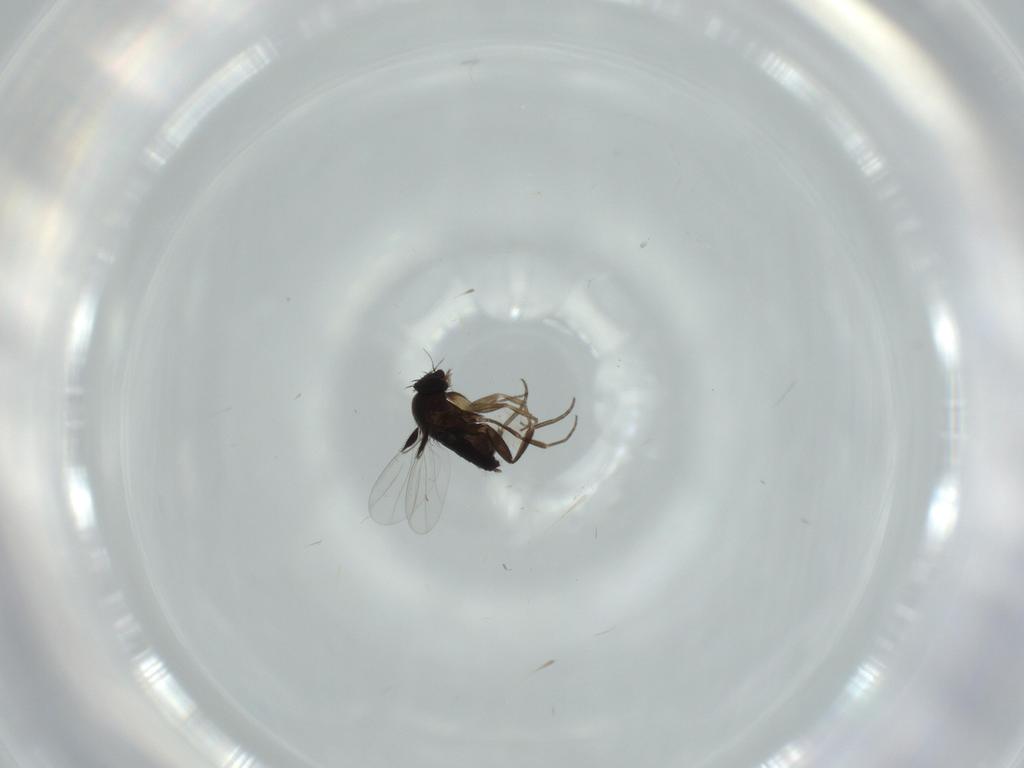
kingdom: Animalia
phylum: Arthropoda
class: Insecta
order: Diptera
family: Phoridae
